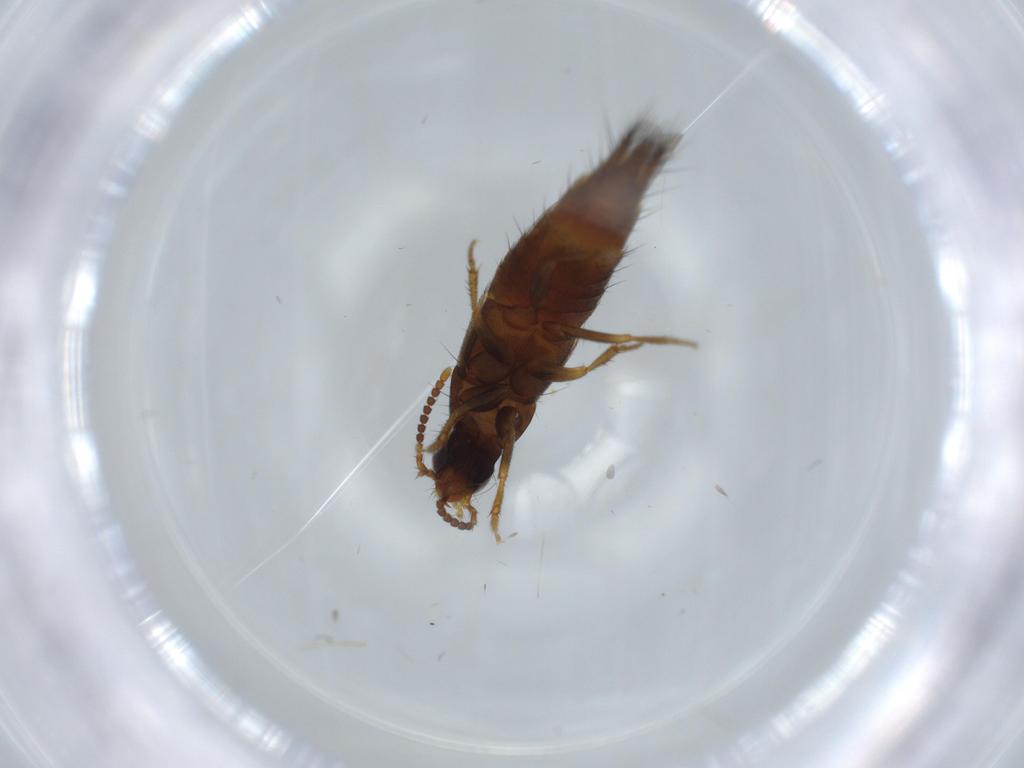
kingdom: Animalia
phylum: Arthropoda
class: Insecta
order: Coleoptera
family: Staphylinidae
